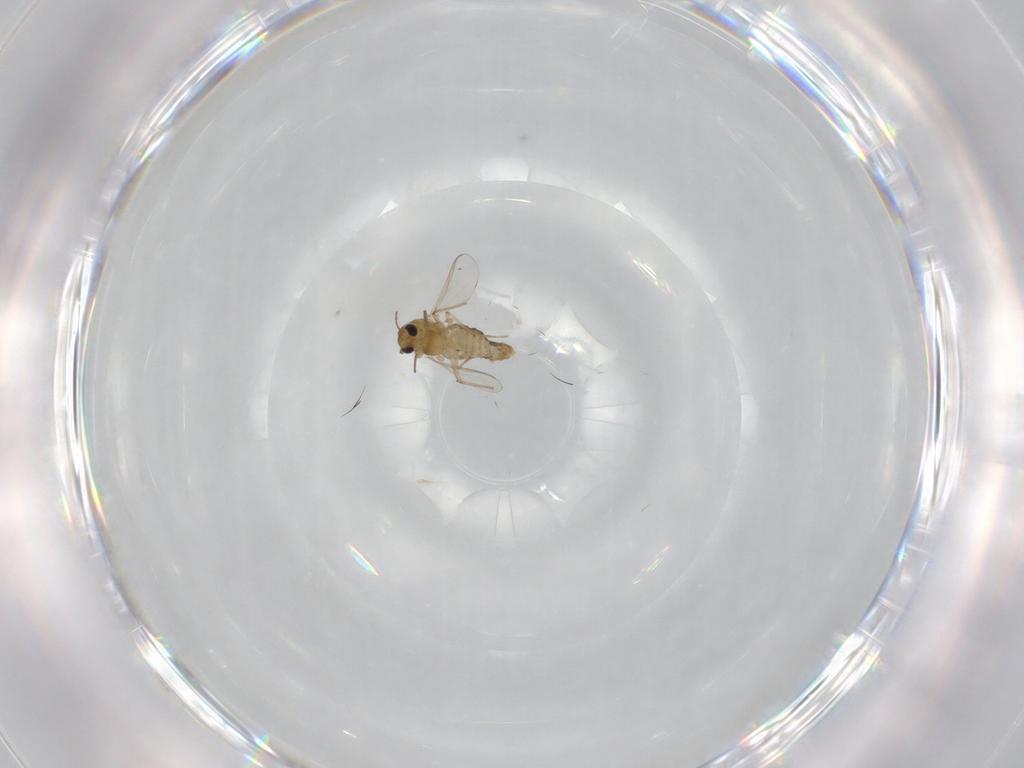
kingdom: Animalia
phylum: Arthropoda
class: Insecta
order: Diptera
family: Chironomidae
